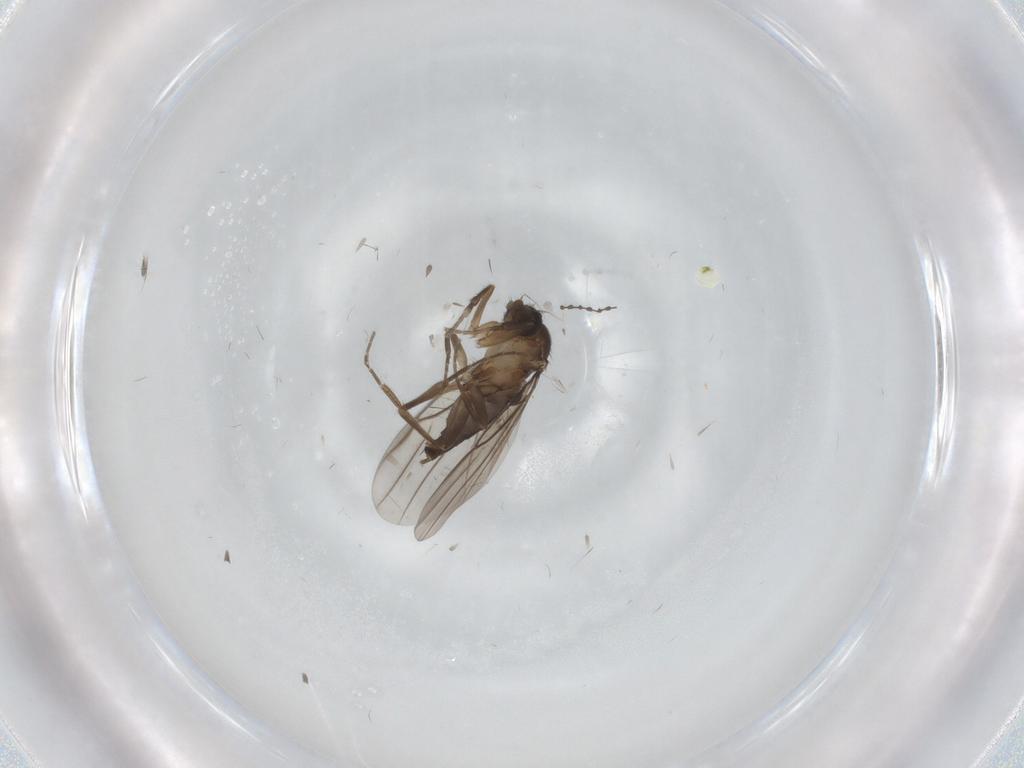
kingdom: Animalia
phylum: Arthropoda
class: Insecta
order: Diptera
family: Phoridae
